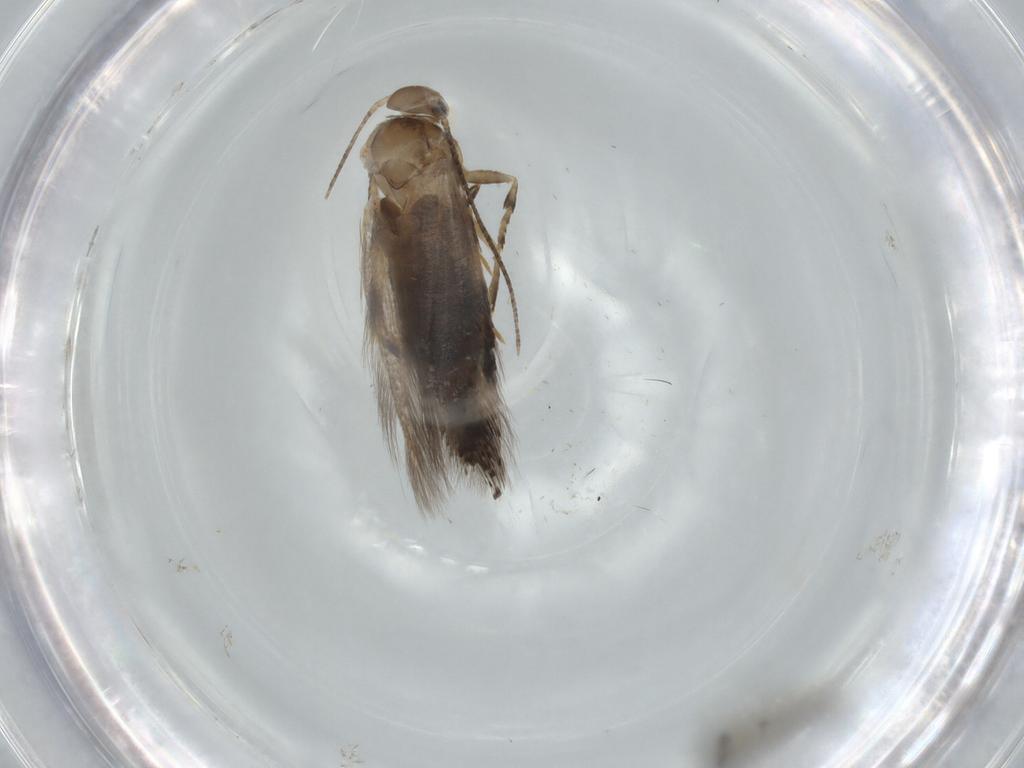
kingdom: Animalia
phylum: Arthropoda
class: Insecta
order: Lepidoptera
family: Elachistidae
